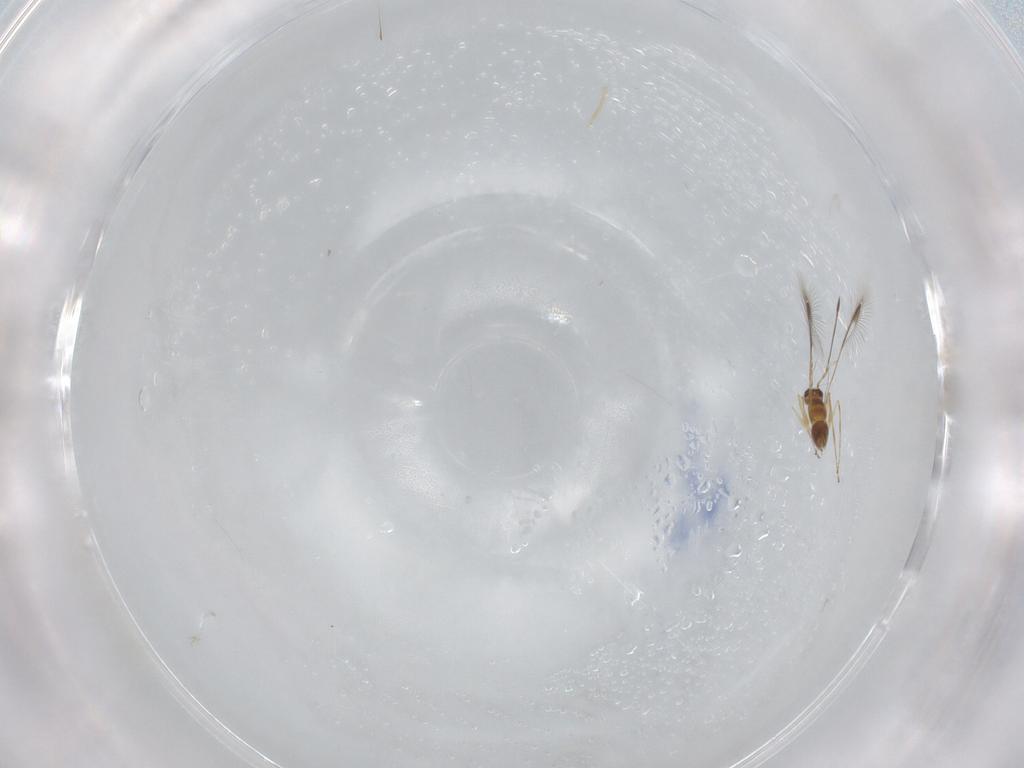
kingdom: Animalia
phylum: Arthropoda
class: Insecta
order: Hymenoptera
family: Mymaridae
